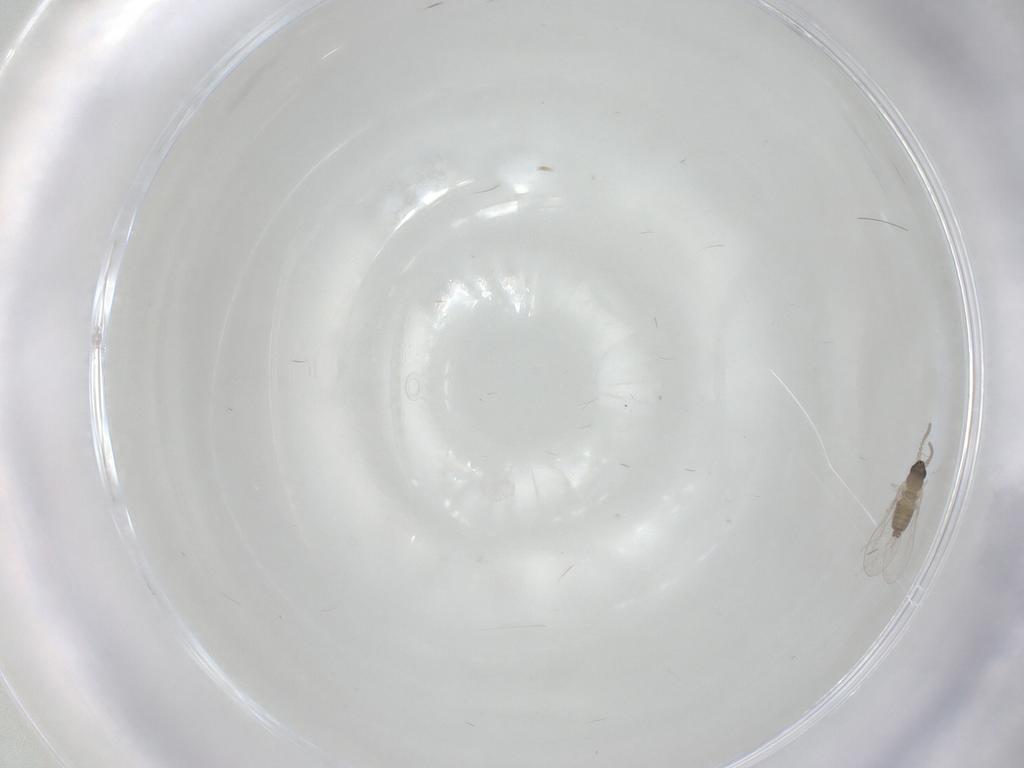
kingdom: Animalia
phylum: Arthropoda
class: Insecta
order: Diptera
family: Cecidomyiidae
